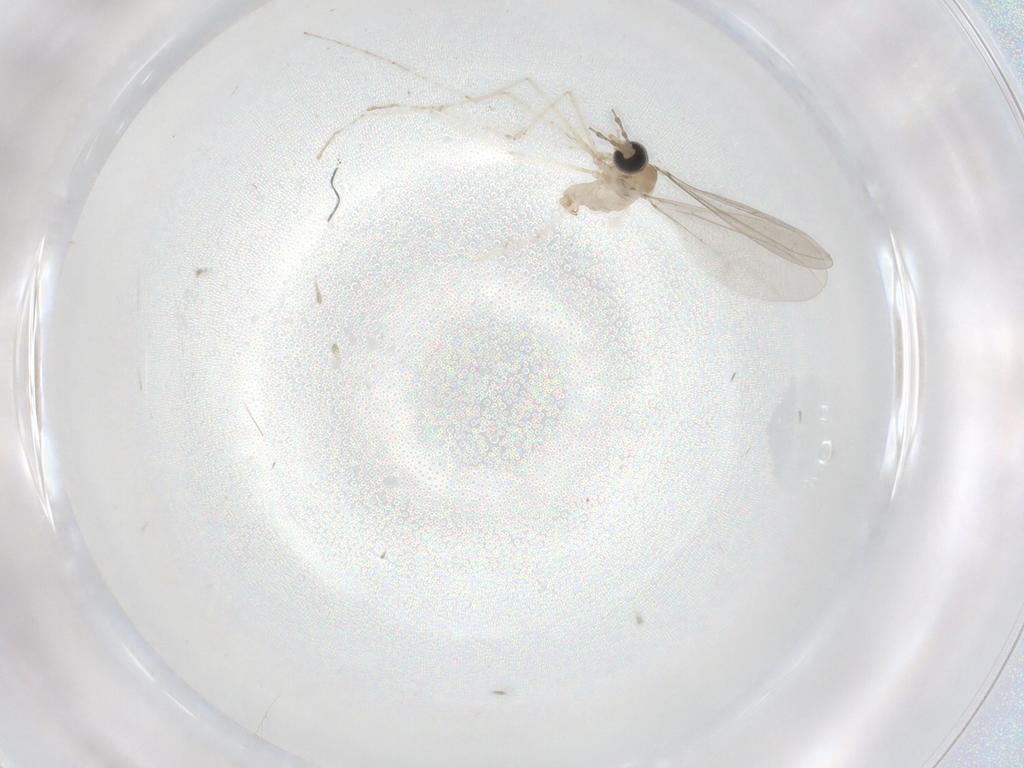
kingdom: Animalia
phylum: Arthropoda
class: Insecta
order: Diptera
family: Cecidomyiidae
